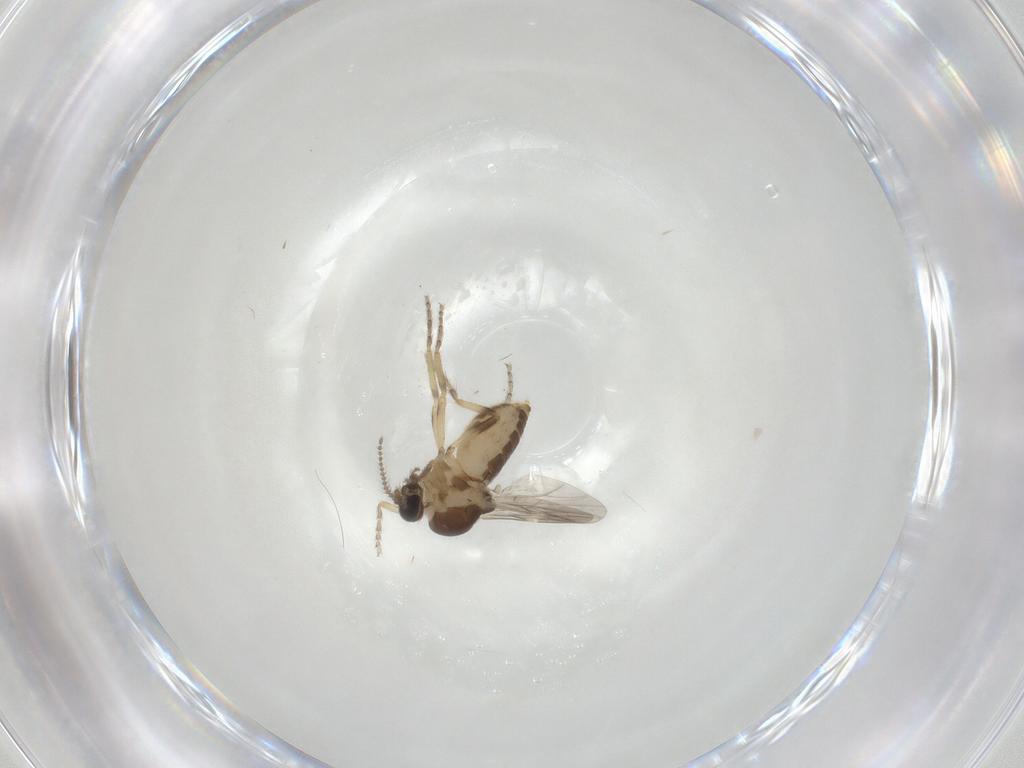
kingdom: Animalia
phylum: Arthropoda
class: Insecta
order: Diptera
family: Ceratopogonidae
